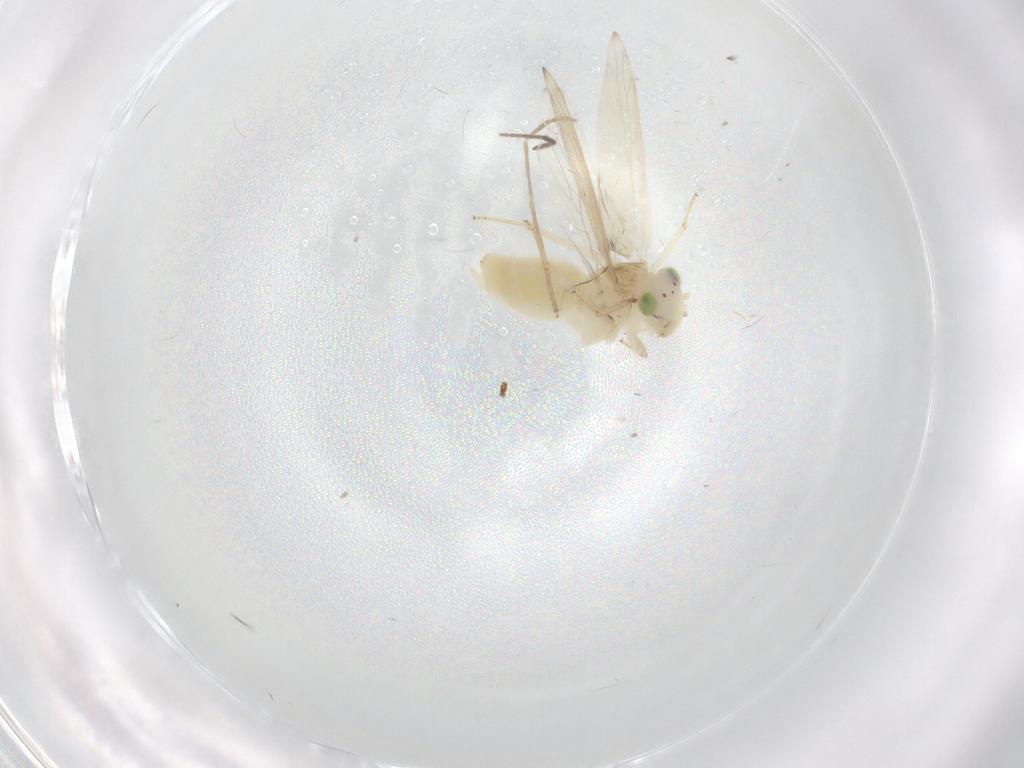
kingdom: Animalia
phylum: Arthropoda
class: Insecta
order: Psocodea
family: Lepidopsocidae
